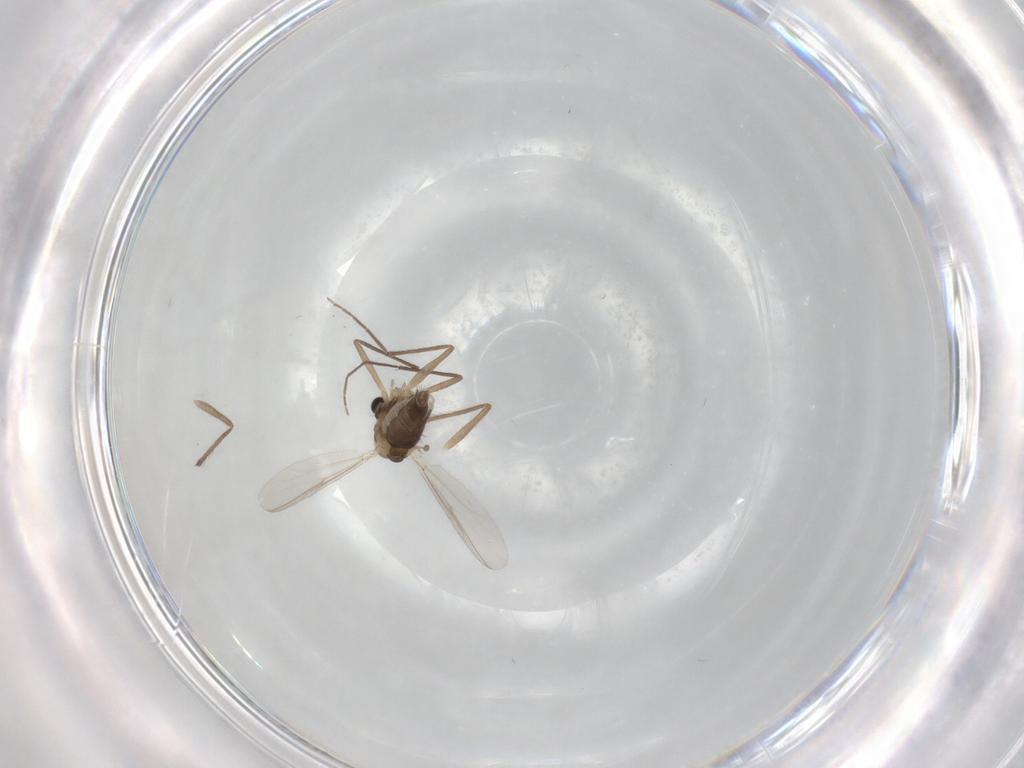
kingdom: Animalia
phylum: Arthropoda
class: Insecta
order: Diptera
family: Chironomidae
